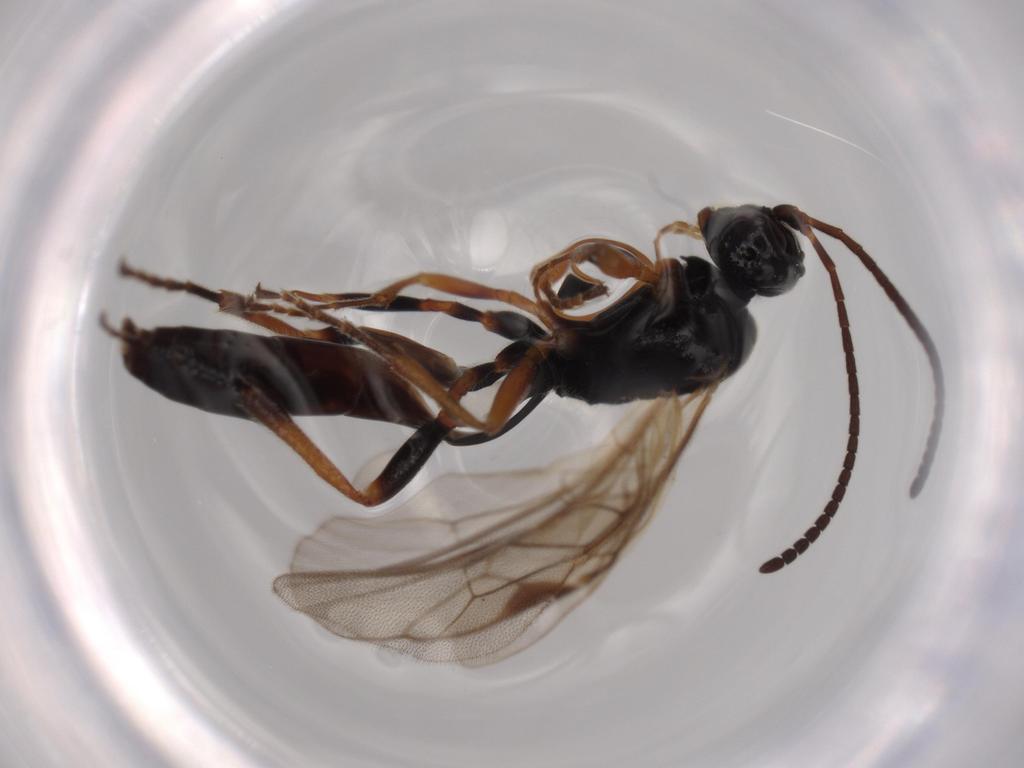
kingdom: Animalia
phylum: Arthropoda
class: Insecta
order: Hymenoptera
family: Ichneumonidae
